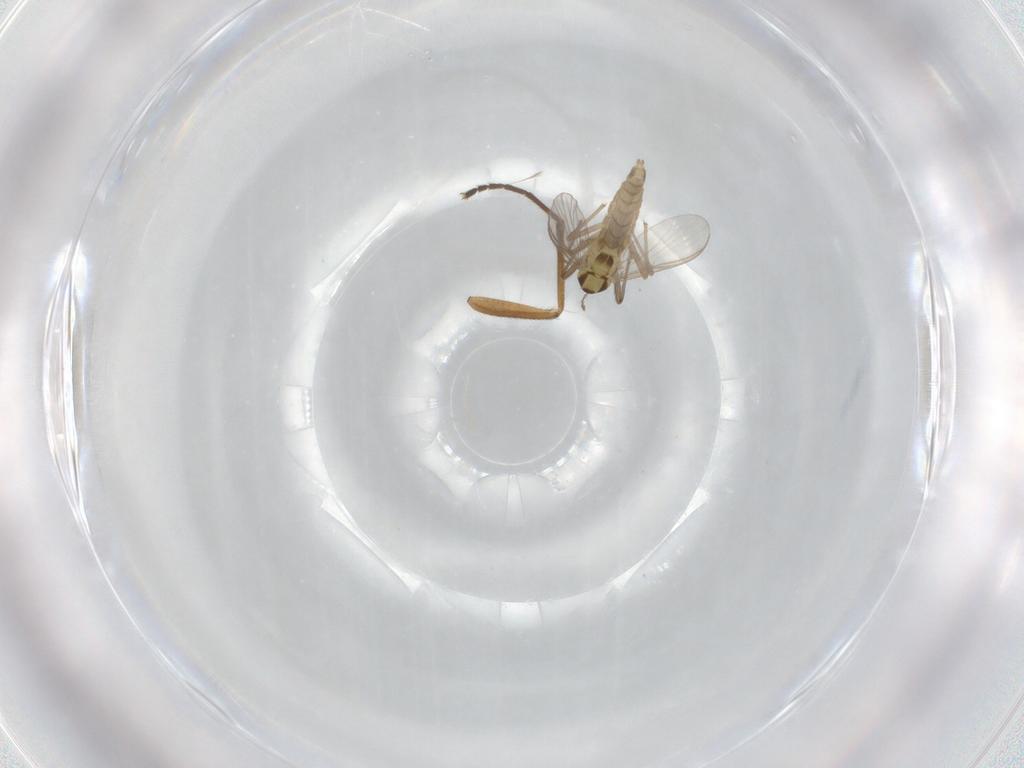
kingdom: Animalia
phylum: Arthropoda
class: Insecta
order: Diptera
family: Chironomidae
